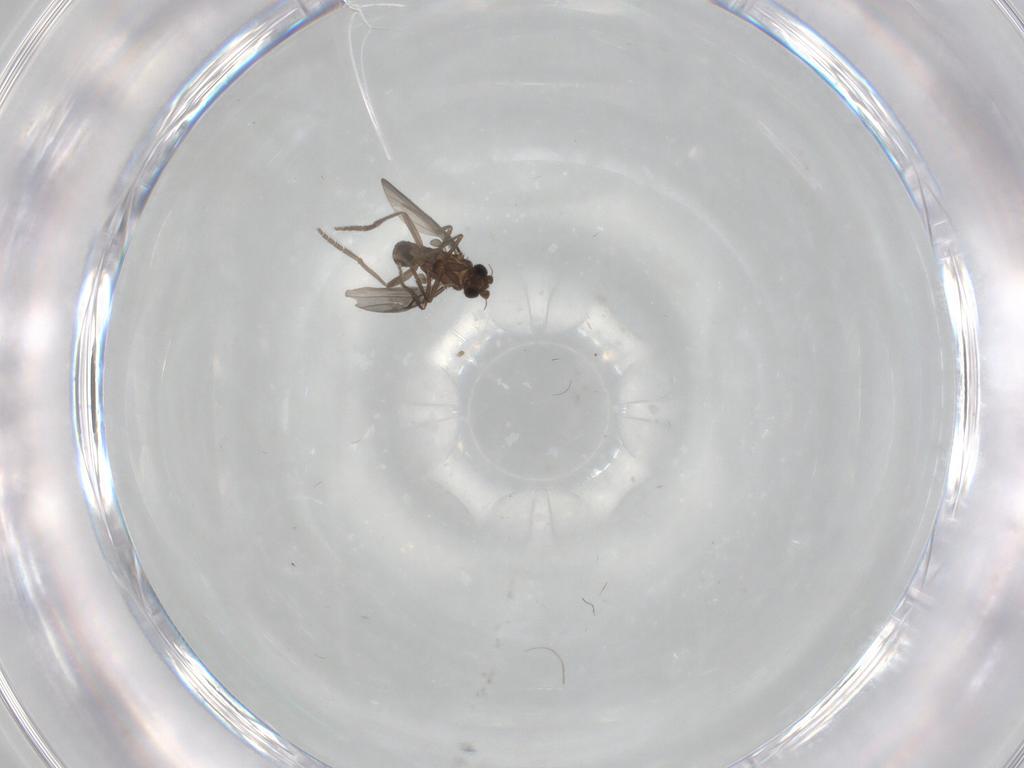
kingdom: Animalia
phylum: Arthropoda
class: Insecta
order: Diptera
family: Phoridae
